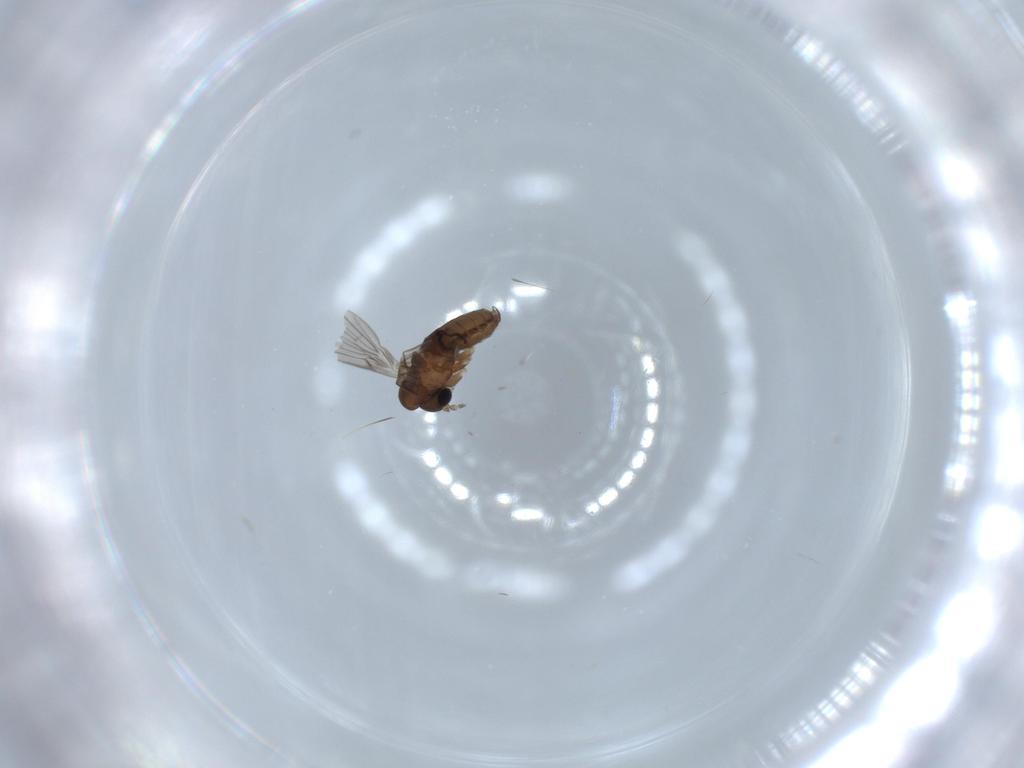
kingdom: Animalia
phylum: Arthropoda
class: Insecta
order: Diptera
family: Psychodidae
